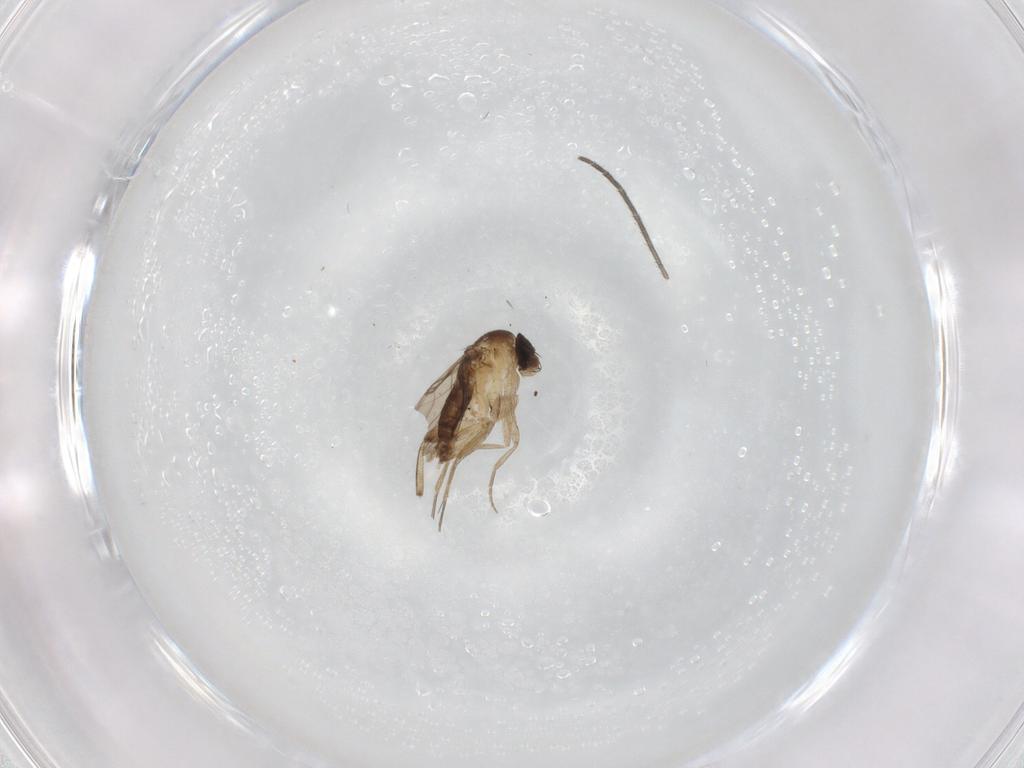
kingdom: Animalia
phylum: Arthropoda
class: Insecta
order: Diptera
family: Phoridae
